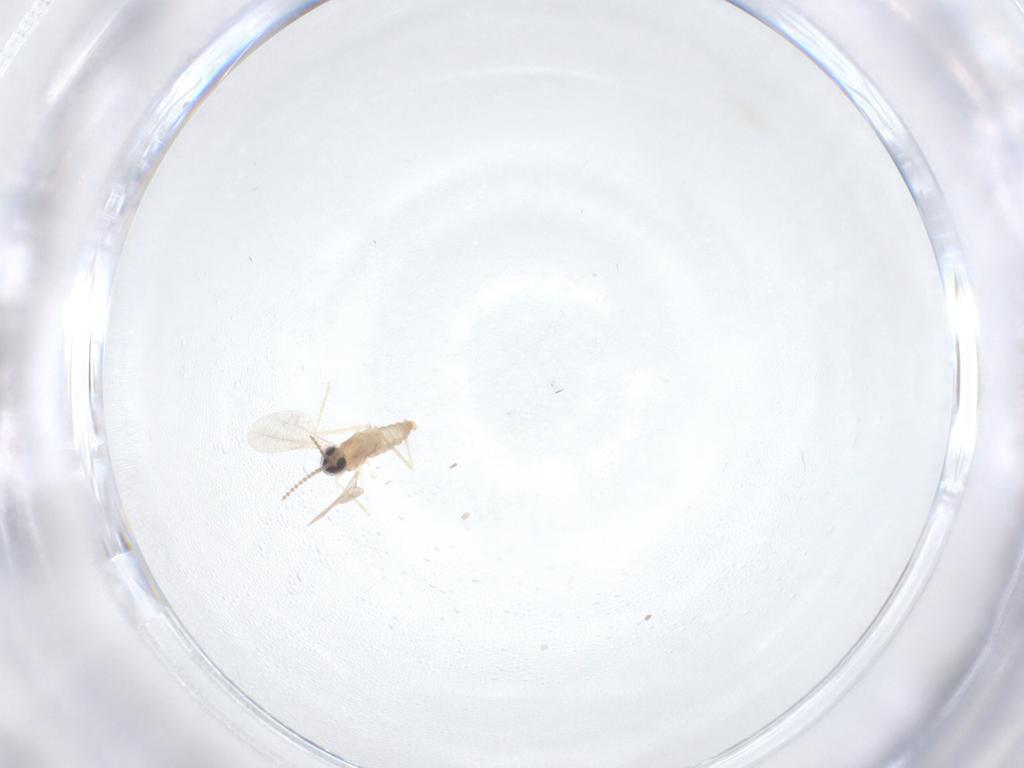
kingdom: Animalia
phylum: Arthropoda
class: Insecta
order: Diptera
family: Cecidomyiidae
